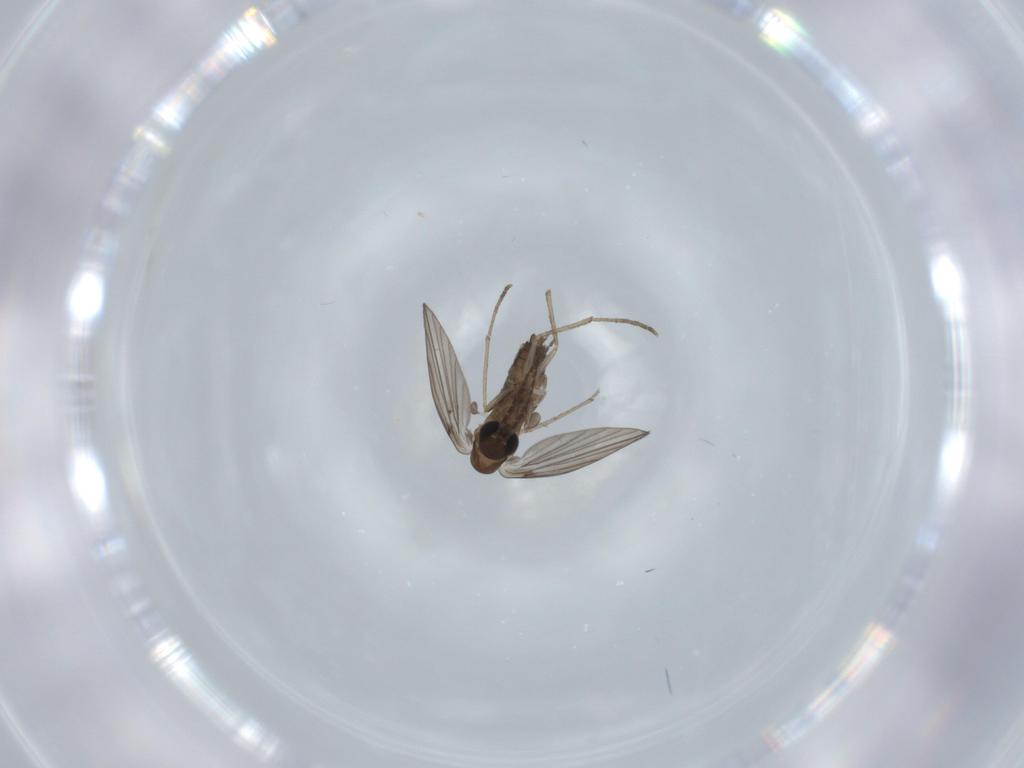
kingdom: Animalia
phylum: Arthropoda
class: Insecta
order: Diptera
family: Psychodidae
